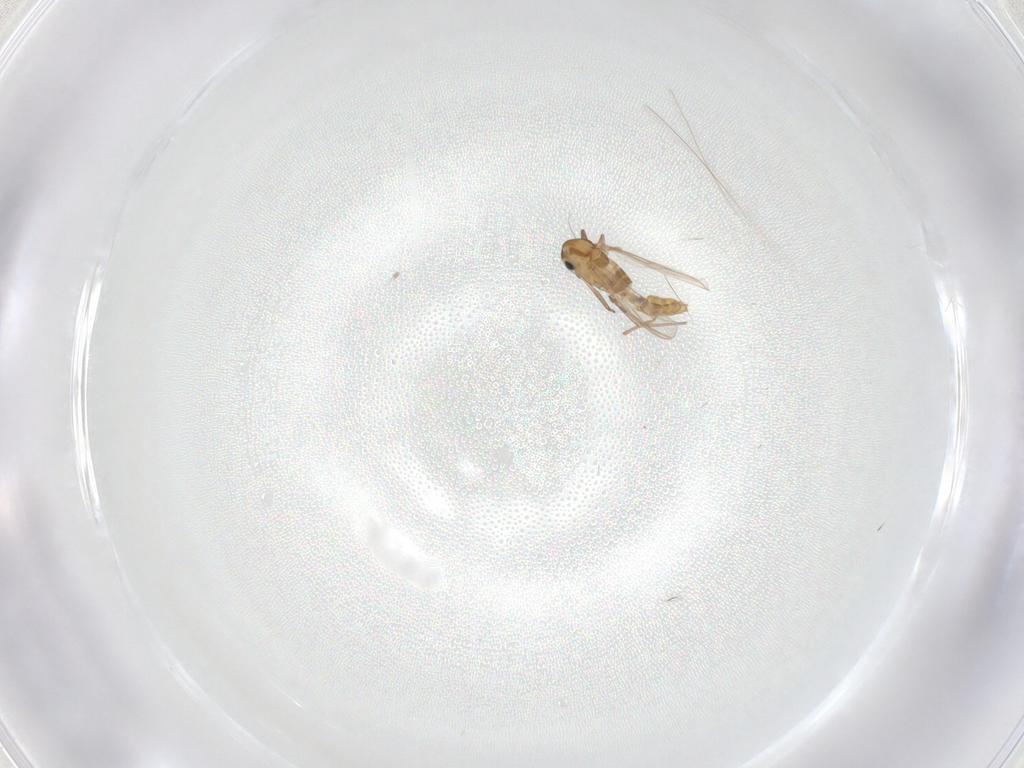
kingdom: Animalia
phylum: Arthropoda
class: Insecta
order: Diptera
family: Chironomidae
